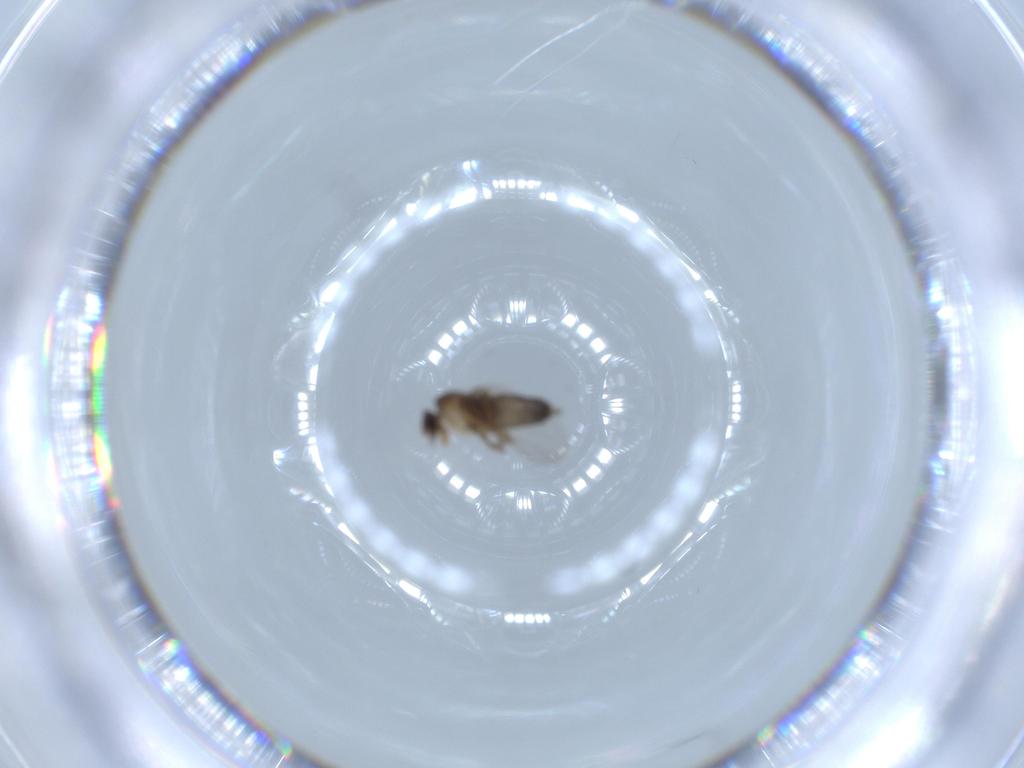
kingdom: Animalia
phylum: Arthropoda
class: Insecta
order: Diptera
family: Phoridae
